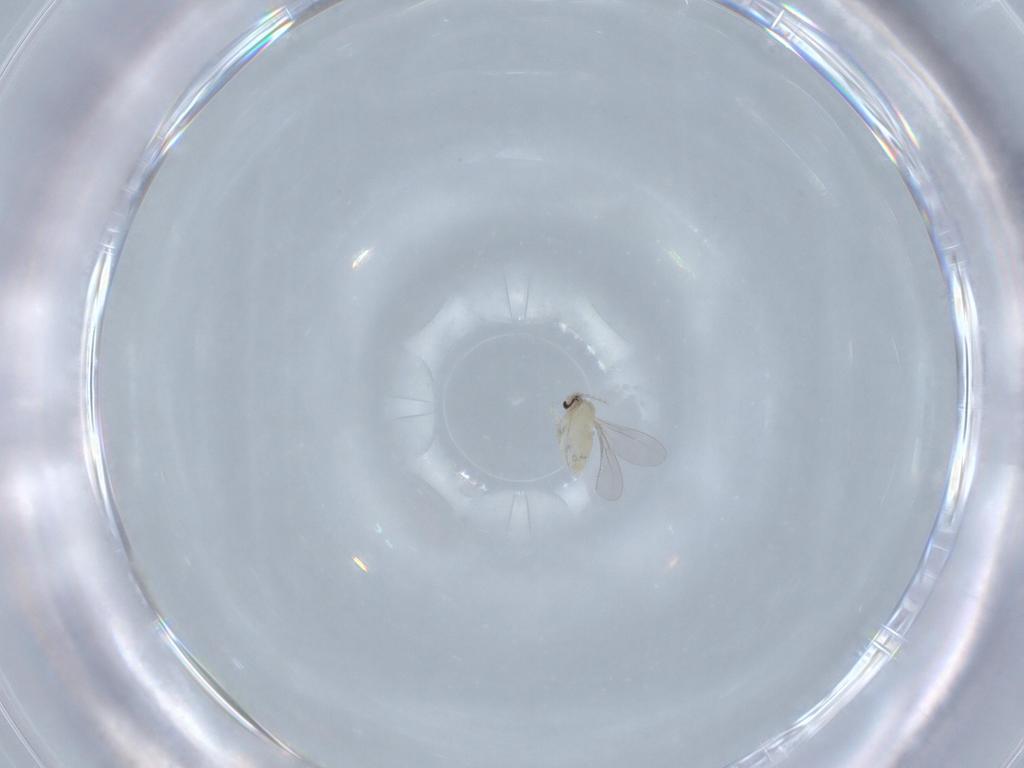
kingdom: Animalia
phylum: Arthropoda
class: Insecta
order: Diptera
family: Cecidomyiidae
